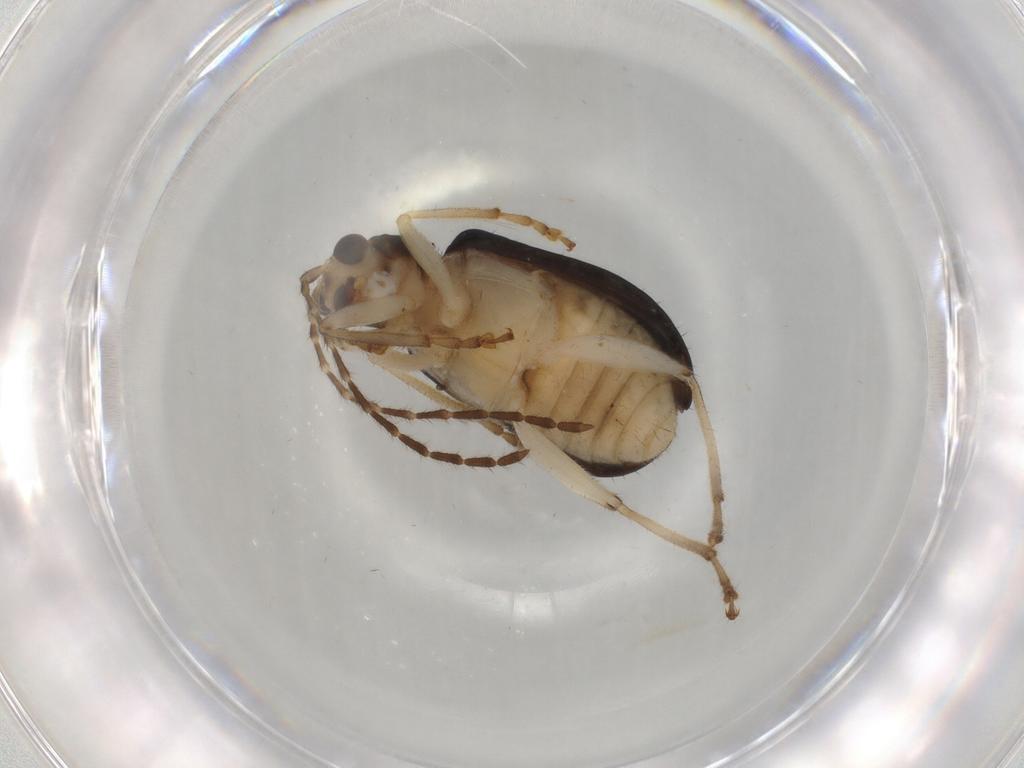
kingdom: Animalia
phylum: Arthropoda
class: Insecta
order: Coleoptera
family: Chrysomelidae
